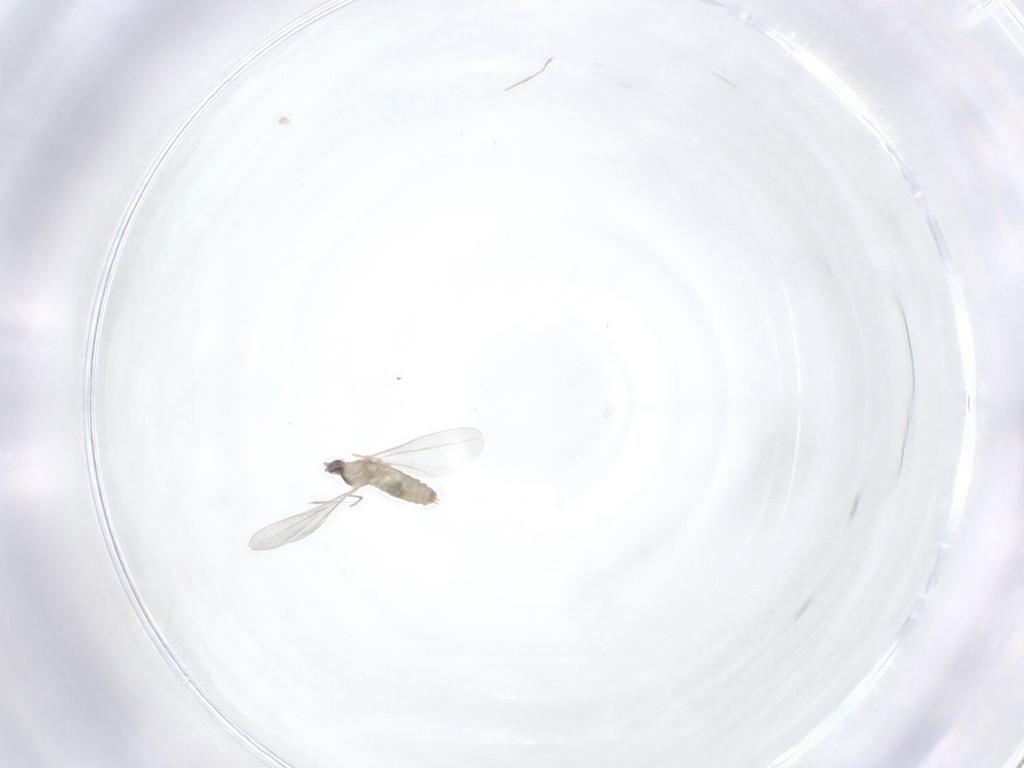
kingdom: Animalia
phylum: Arthropoda
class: Insecta
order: Diptera
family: Cecidomyiidae
